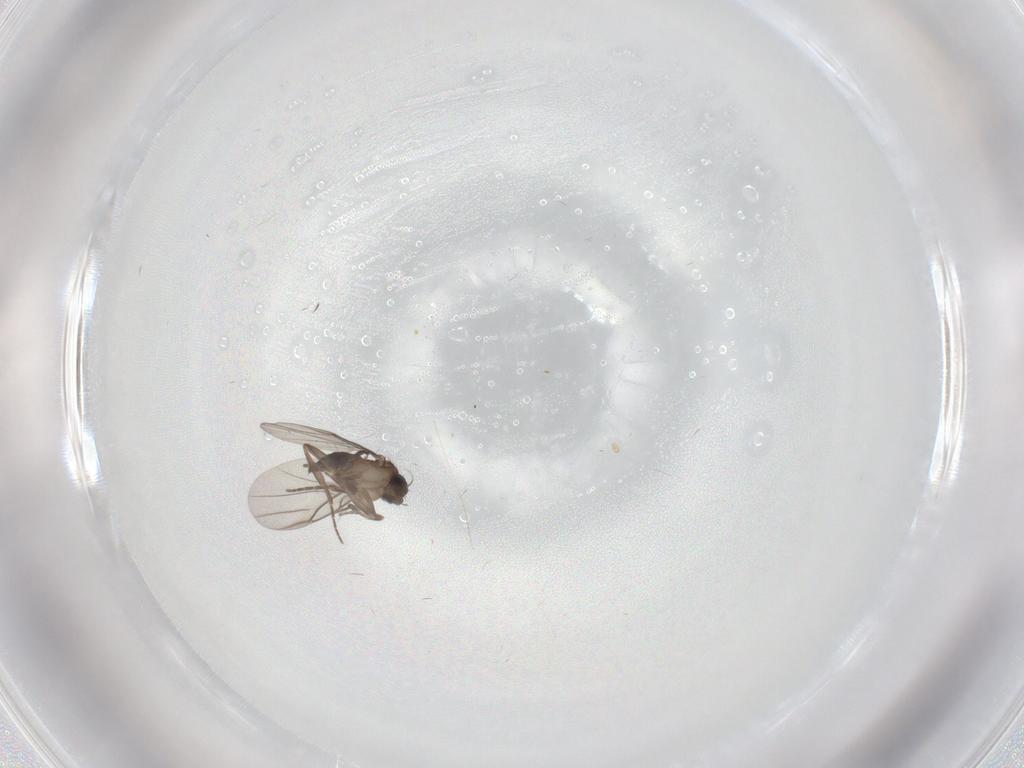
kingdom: Animalia
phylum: Arthropoda
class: Insecta
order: Diptera
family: Psychodidae
